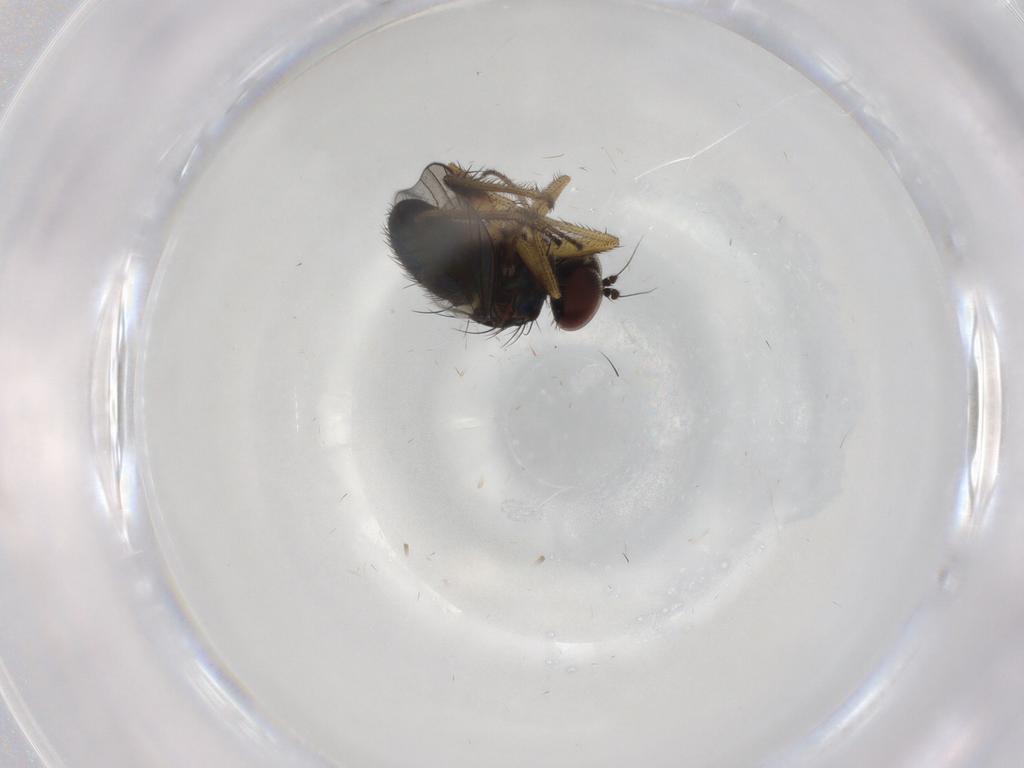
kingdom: Animalia
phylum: Arthropoda
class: Insecta
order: Diptera
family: Dolichopodidae
